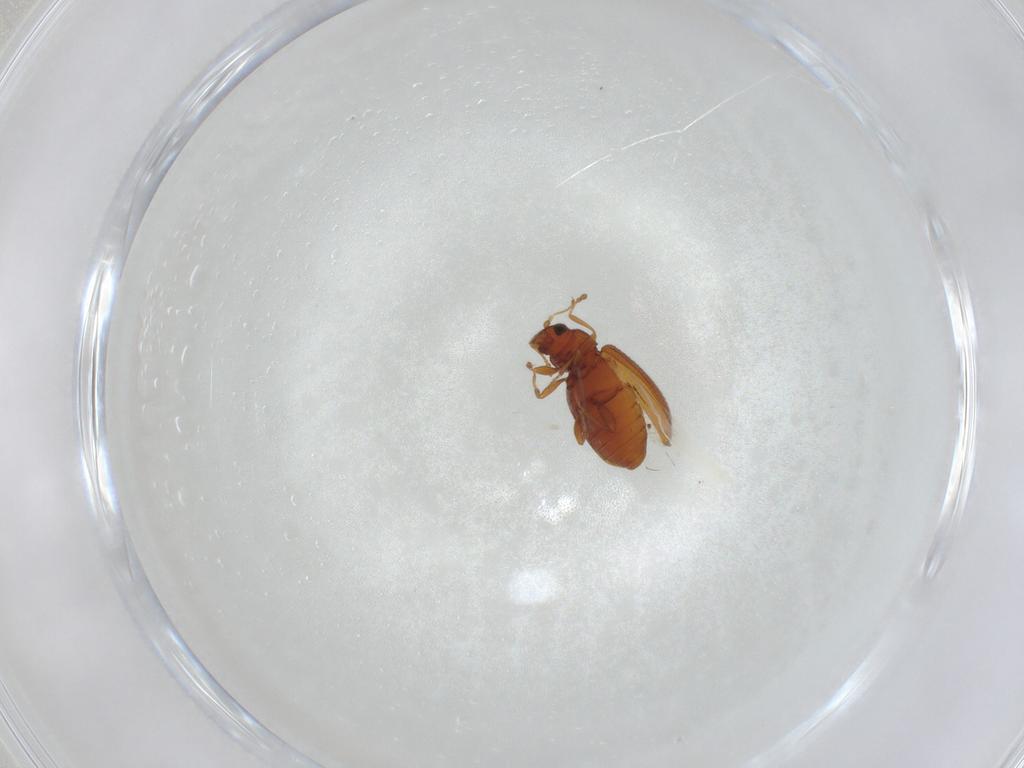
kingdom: Animalia
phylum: Arthropoda
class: Insecta
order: Coleoptera
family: Latridiidae
